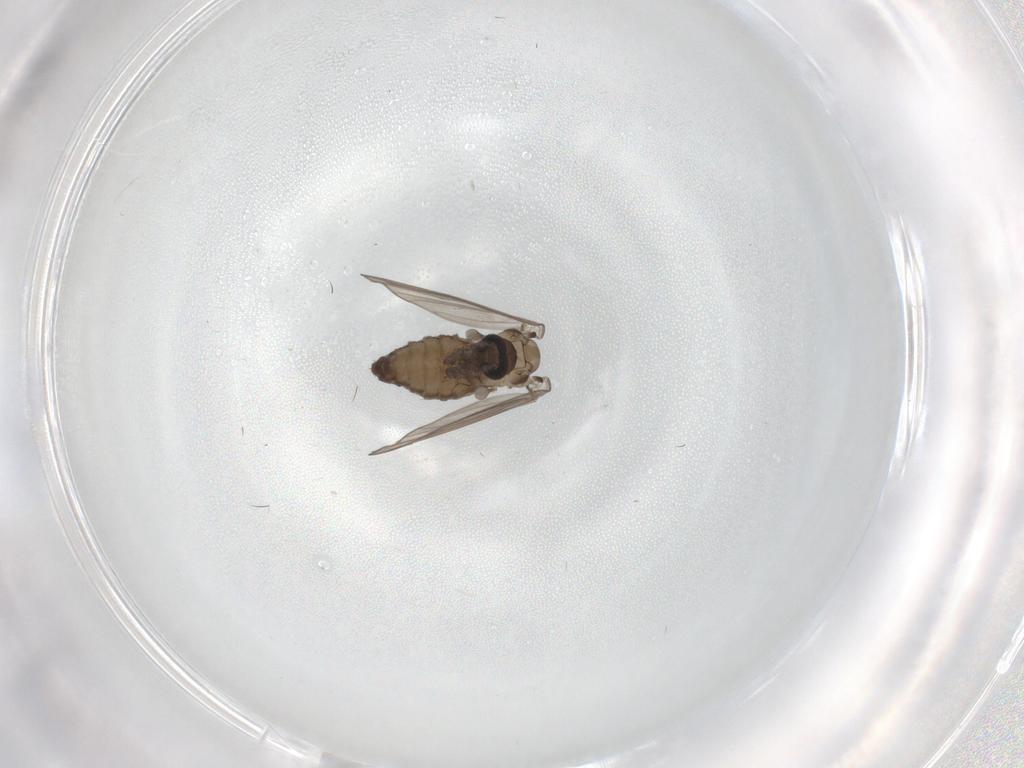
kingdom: Animalia
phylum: Arthropoda
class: Insecta
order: Diptera
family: Psychodidae
